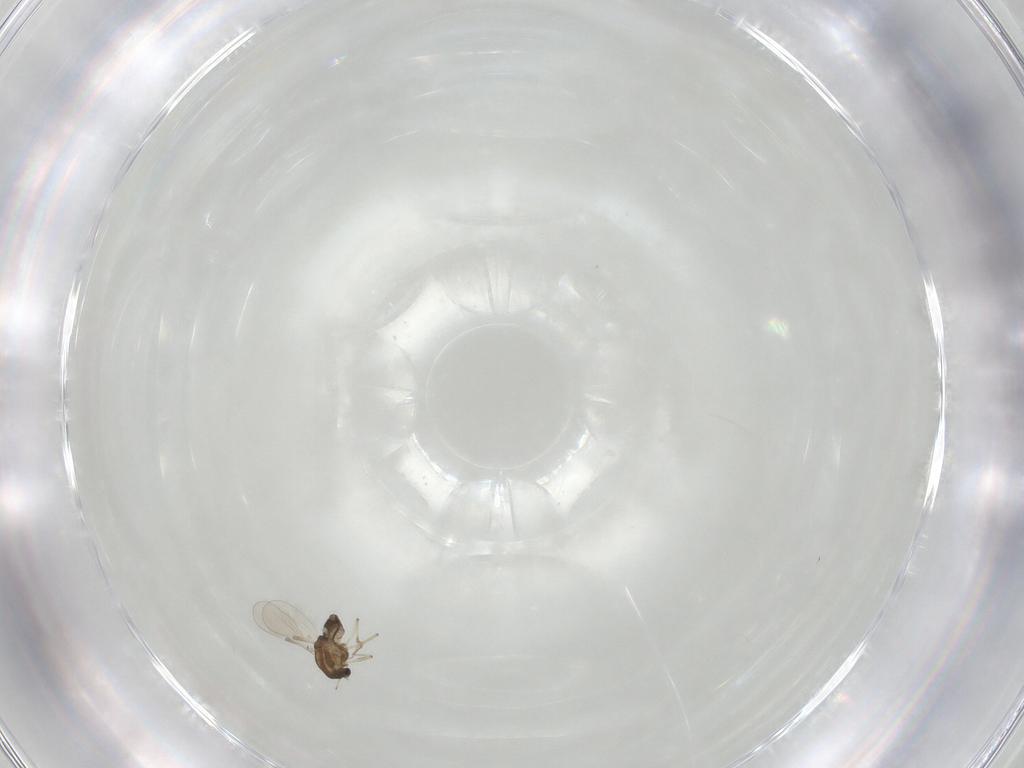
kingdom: Animalia
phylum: Arthropoda
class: Insecta
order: Diptera
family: Chironomidae
